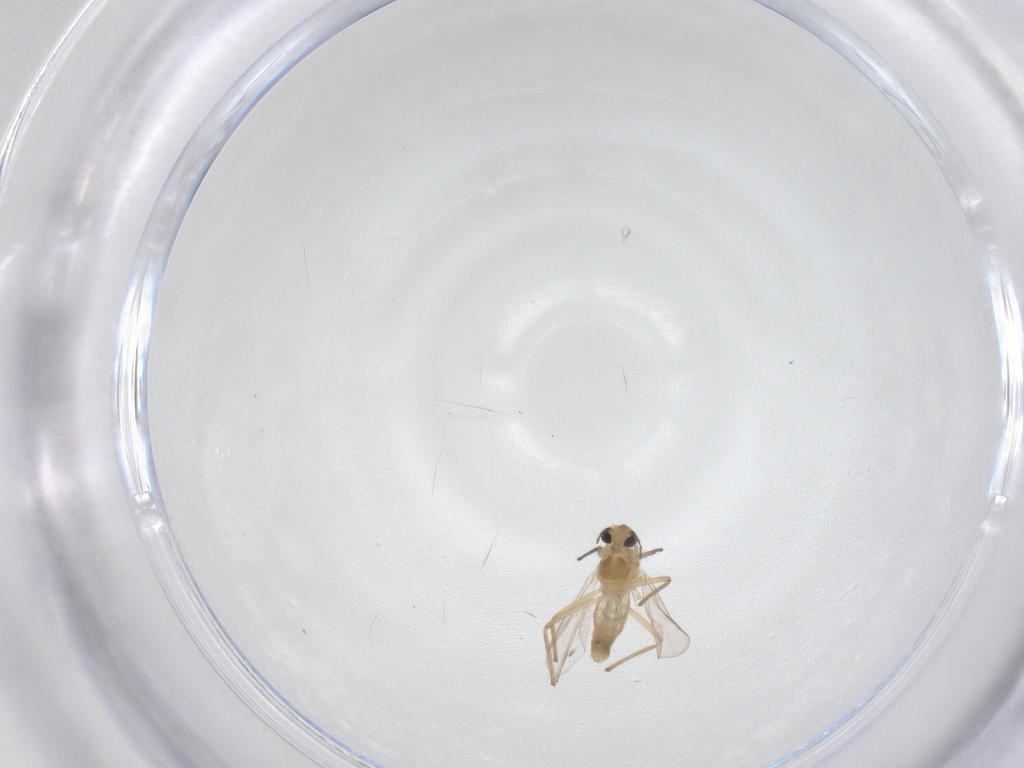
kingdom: Animalia
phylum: Arthropoda
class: Insecta
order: Diptera
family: Chironomidae
